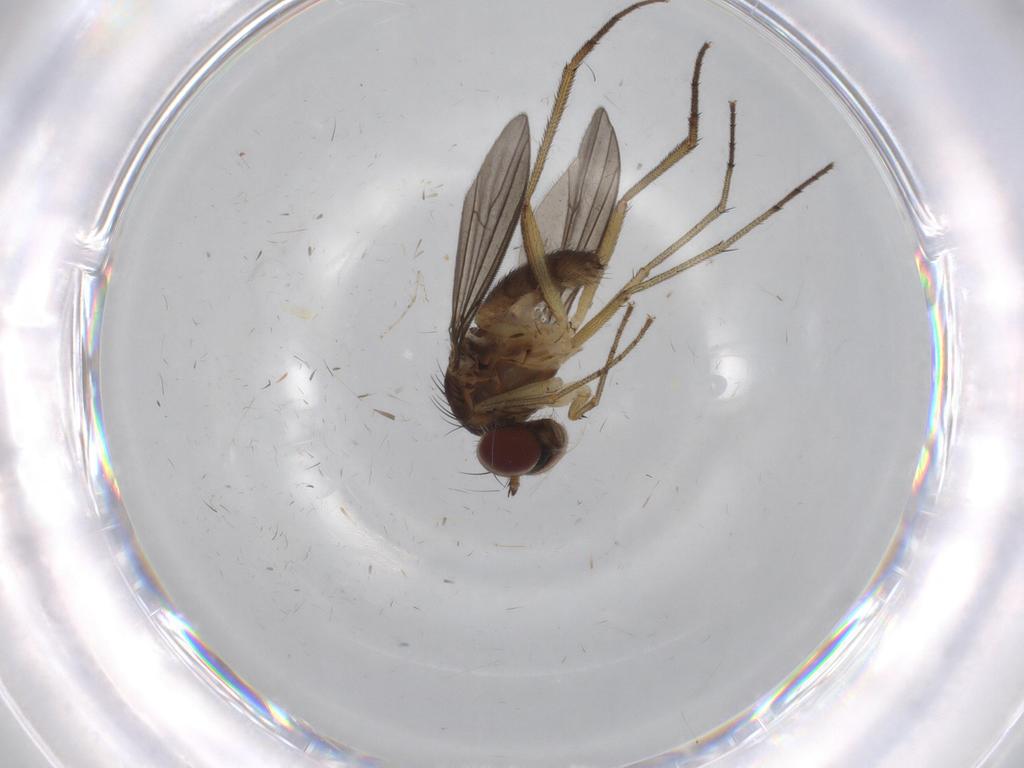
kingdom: Animalia
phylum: Arthropoda
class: Insecta
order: Diptera
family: Dolichopodidae
